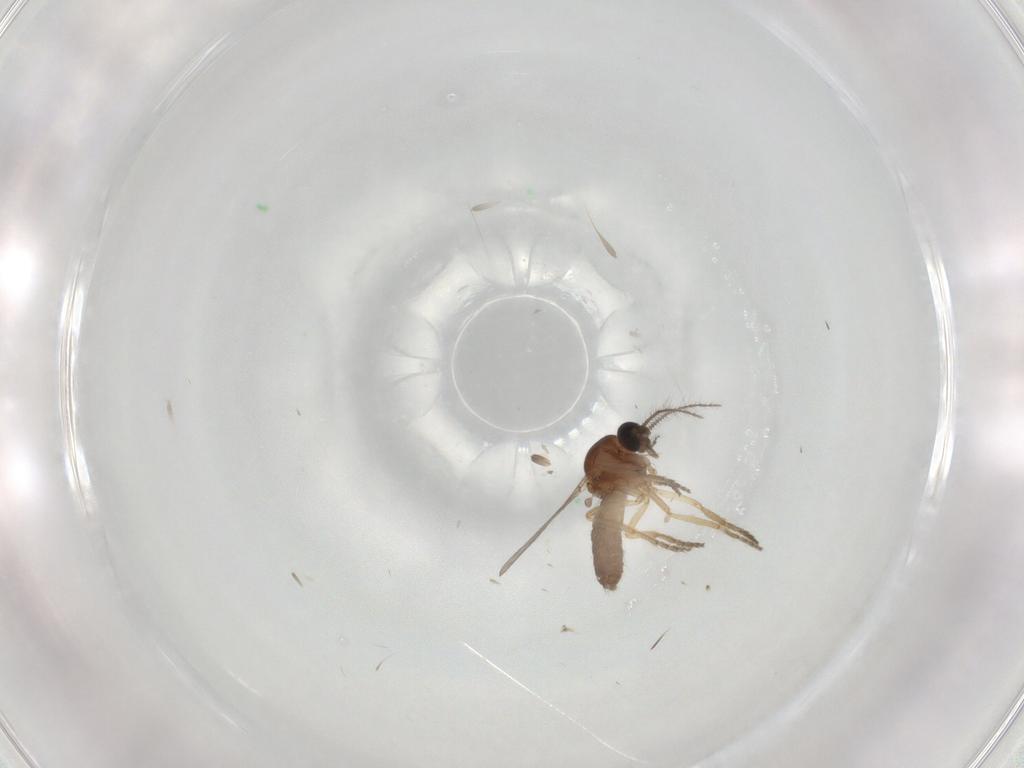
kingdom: Animalia
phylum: Arthropoda
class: Insecta
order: Diptera
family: Ceratopogonidae
